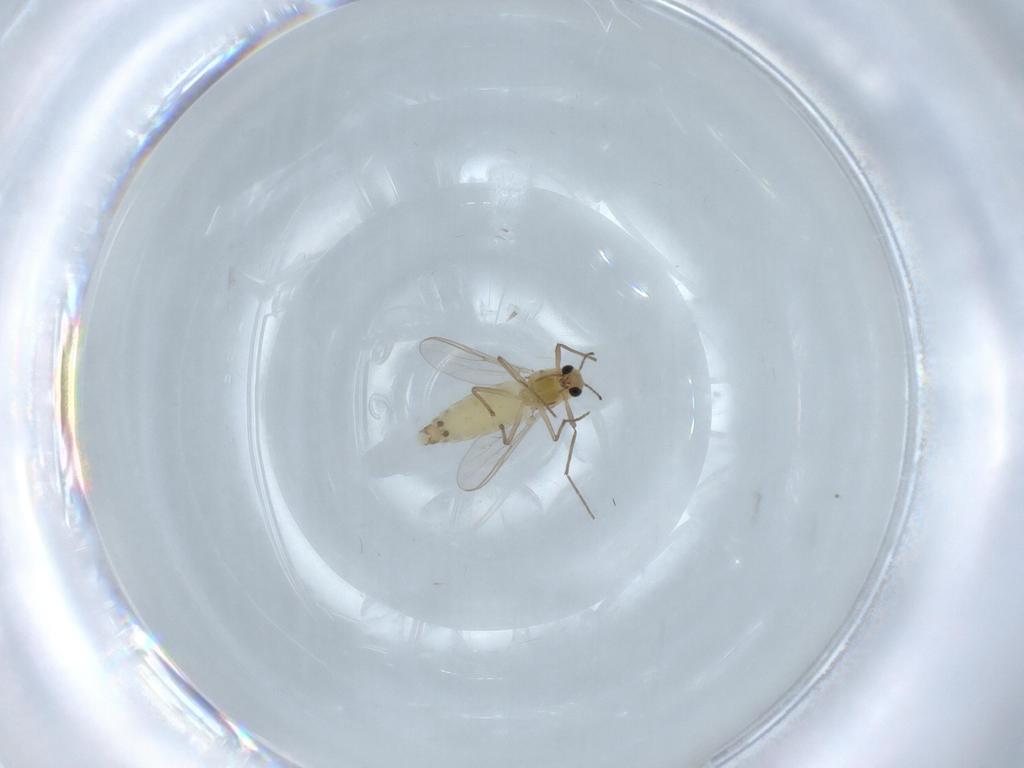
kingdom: Animalia
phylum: Arthropoda
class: Insecta
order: Diptera
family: Chironomidae
